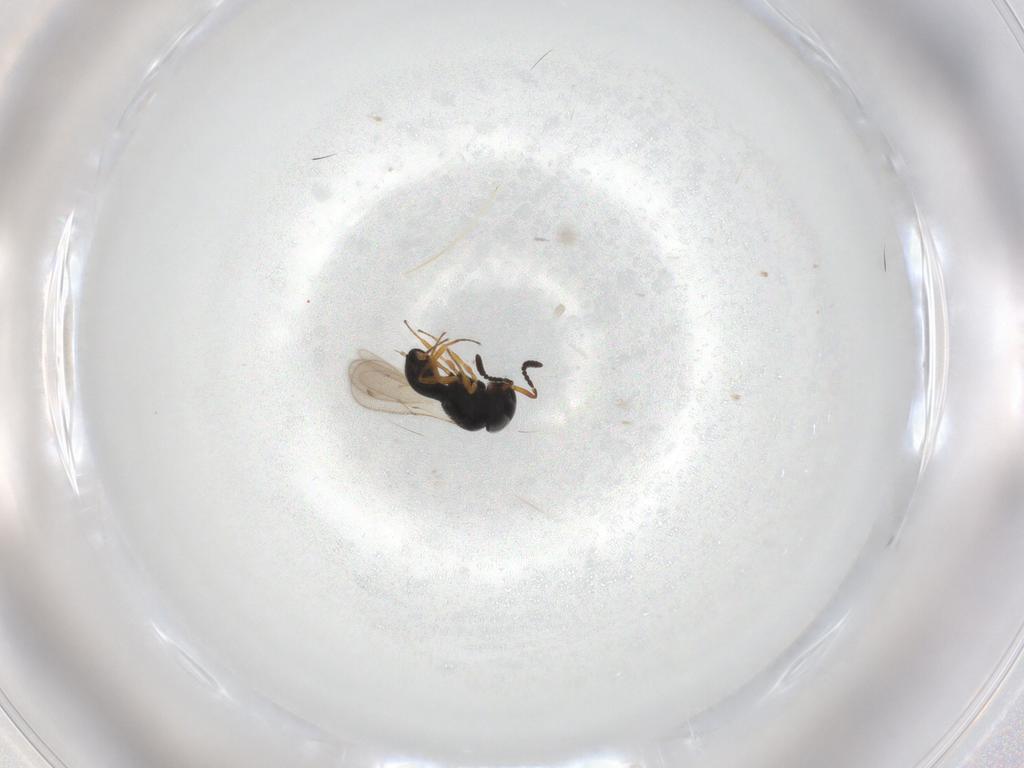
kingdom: Animalia
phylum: Arthropoda
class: Insecta
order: Hymenoptera
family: Scelionidae
